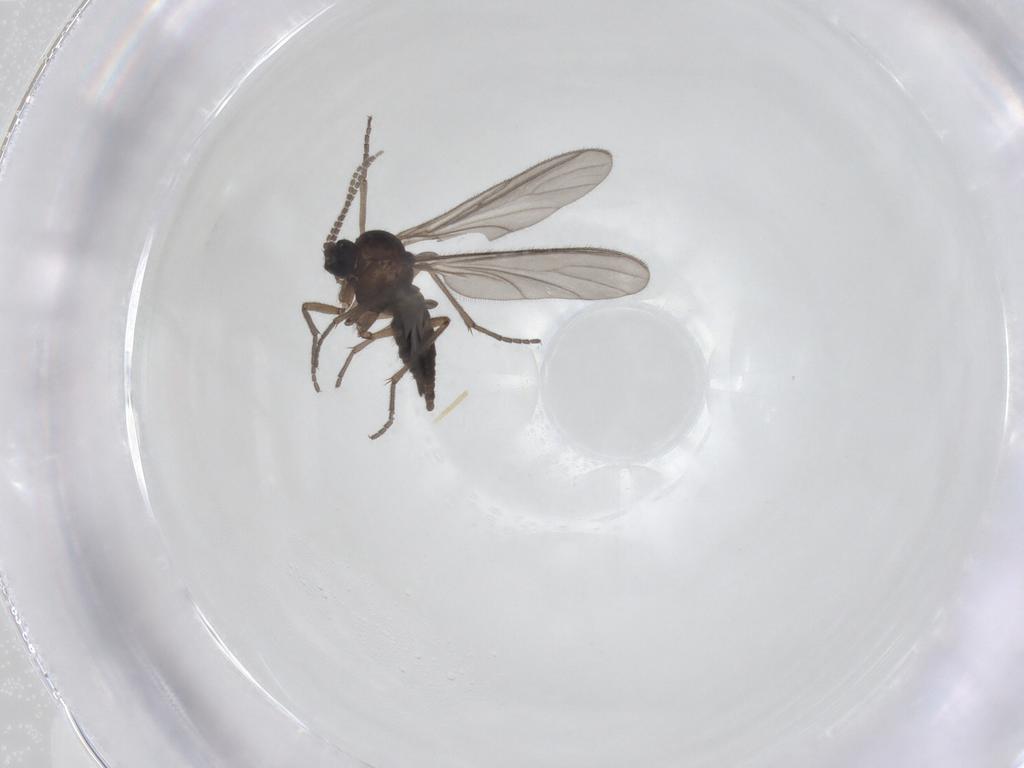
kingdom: Animalia
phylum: Arthropoda
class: Insecta
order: Diptera
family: Sciaridae
